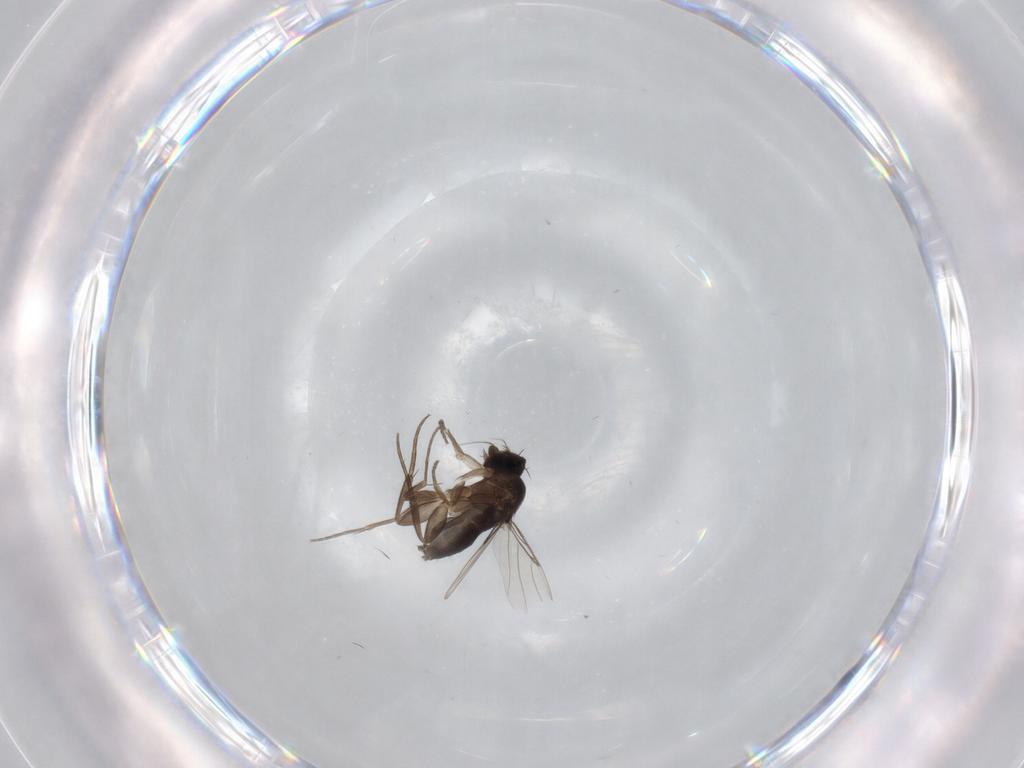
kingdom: Animalia
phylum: Arthropoda
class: Insecta
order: Diptera
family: Phoridae
